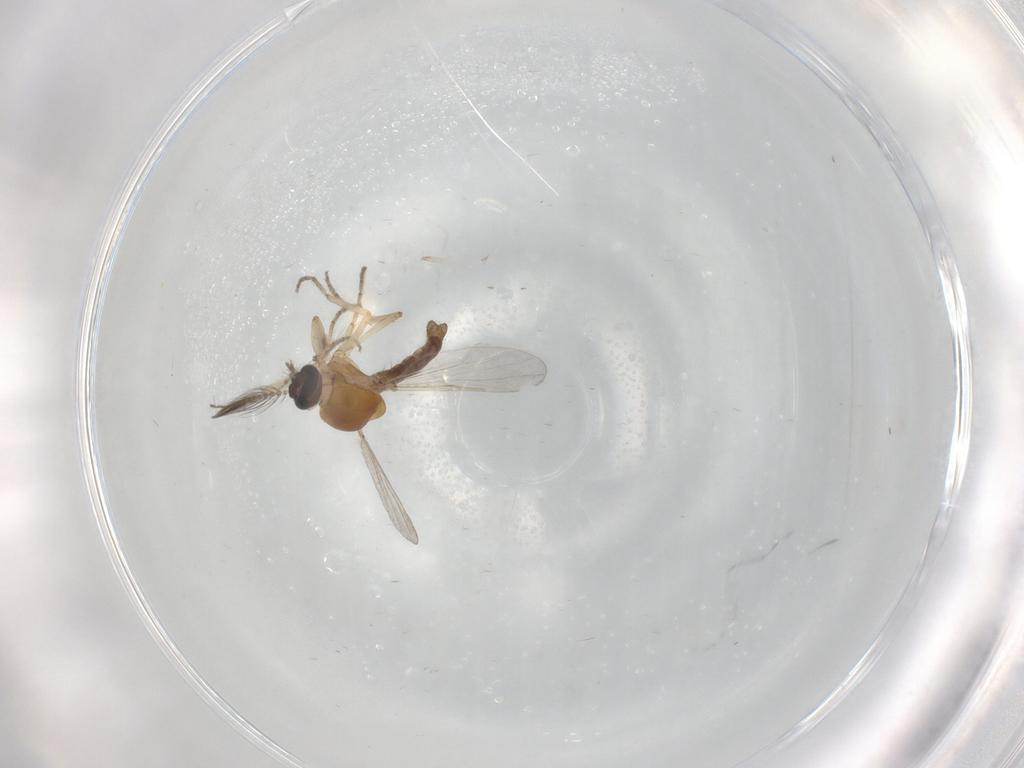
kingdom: Animalia
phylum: Arthropoda
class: Insecta
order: Diptera
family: Ceratopogonidae
